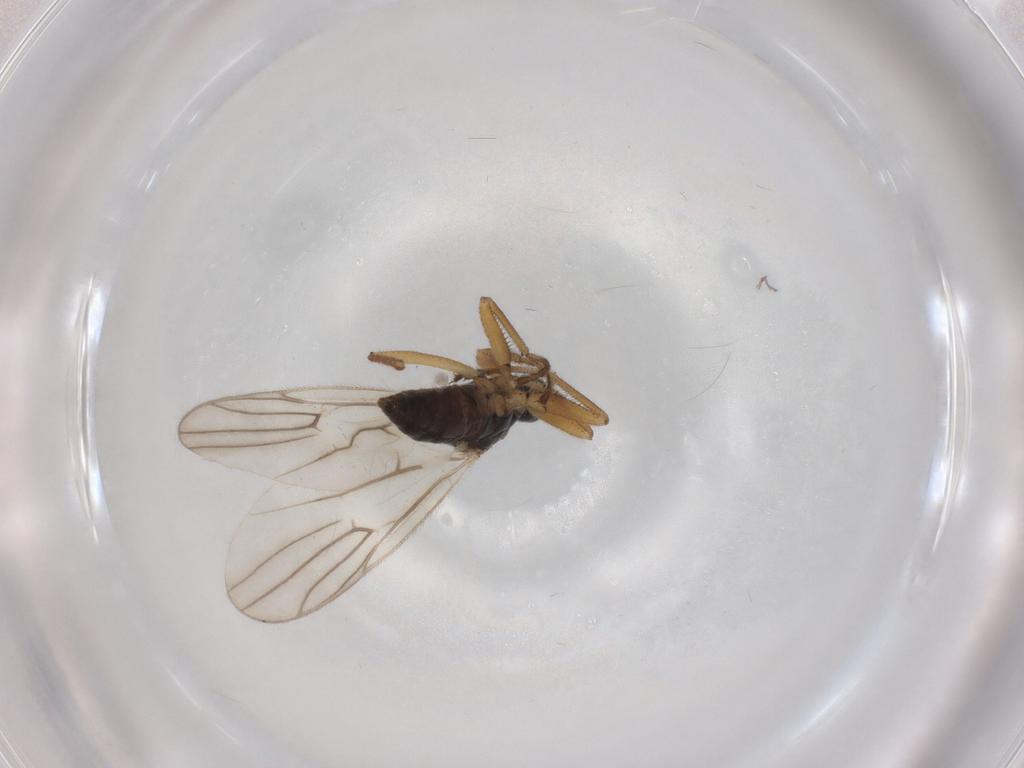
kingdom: Animalia
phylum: Arthropoda
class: Insecta
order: Diptera
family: Hybotidae
